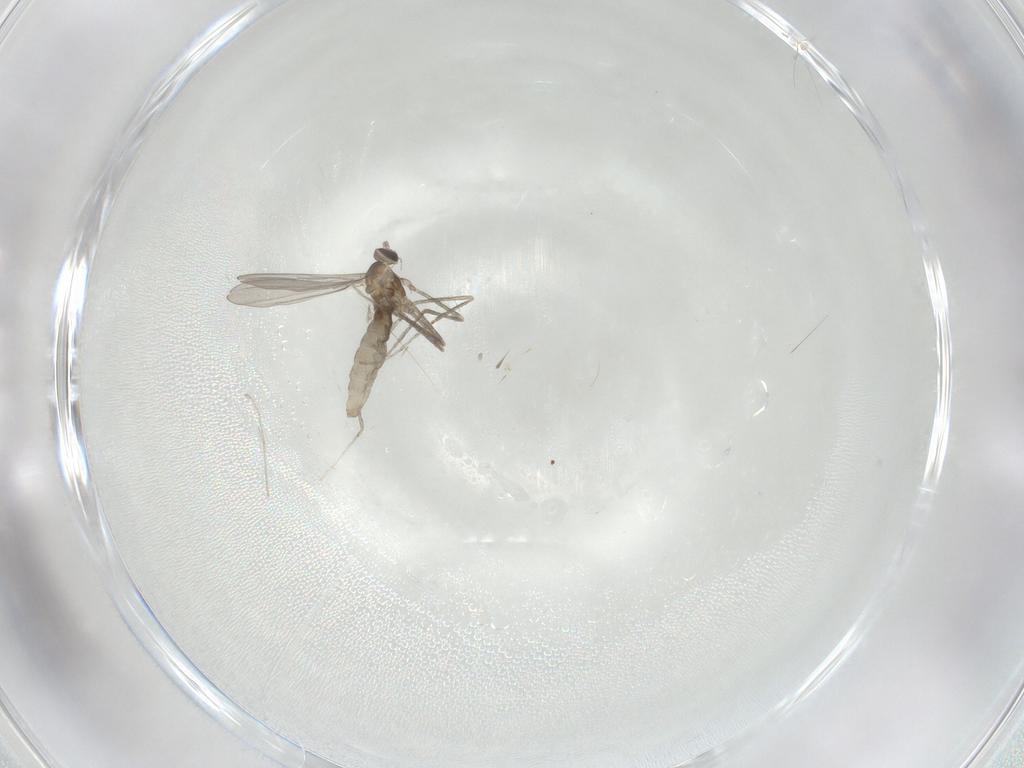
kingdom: Animalia
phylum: Arthropoda
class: Insecta
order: Diptera
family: Cecidomyiidae
